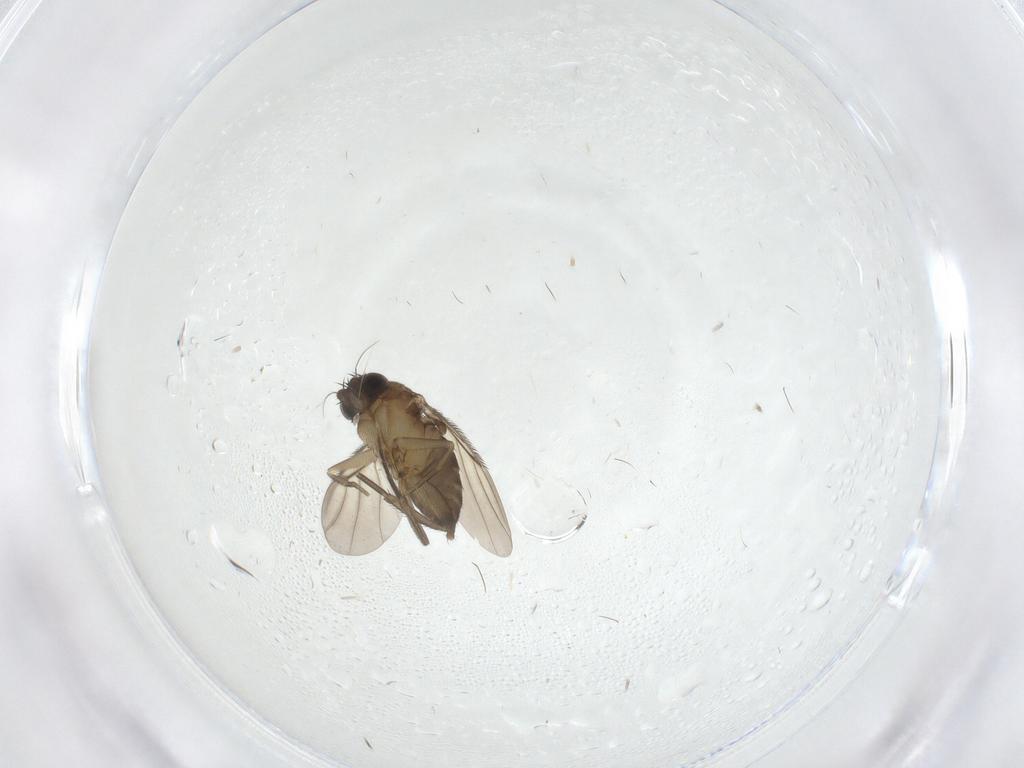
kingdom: Animalia
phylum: Arthropoda
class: Insecta
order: Diptera
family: Phoridae
